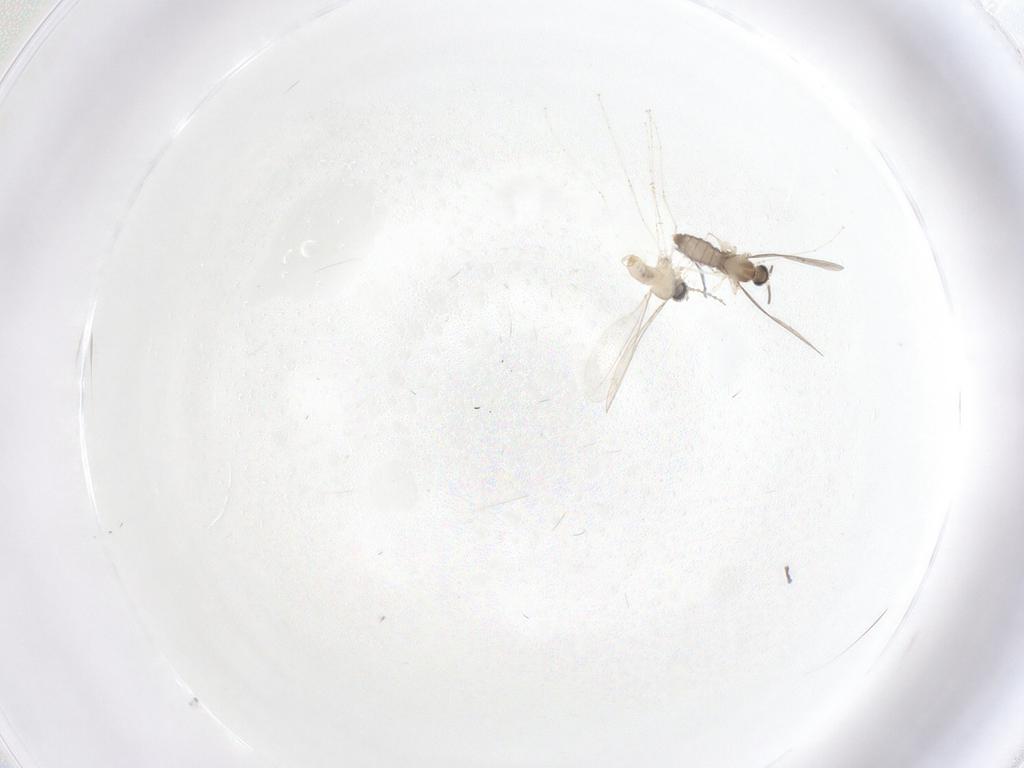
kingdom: Animalia
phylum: Arthropoda
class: Insecta
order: Diptera
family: Cecidomyiidae
